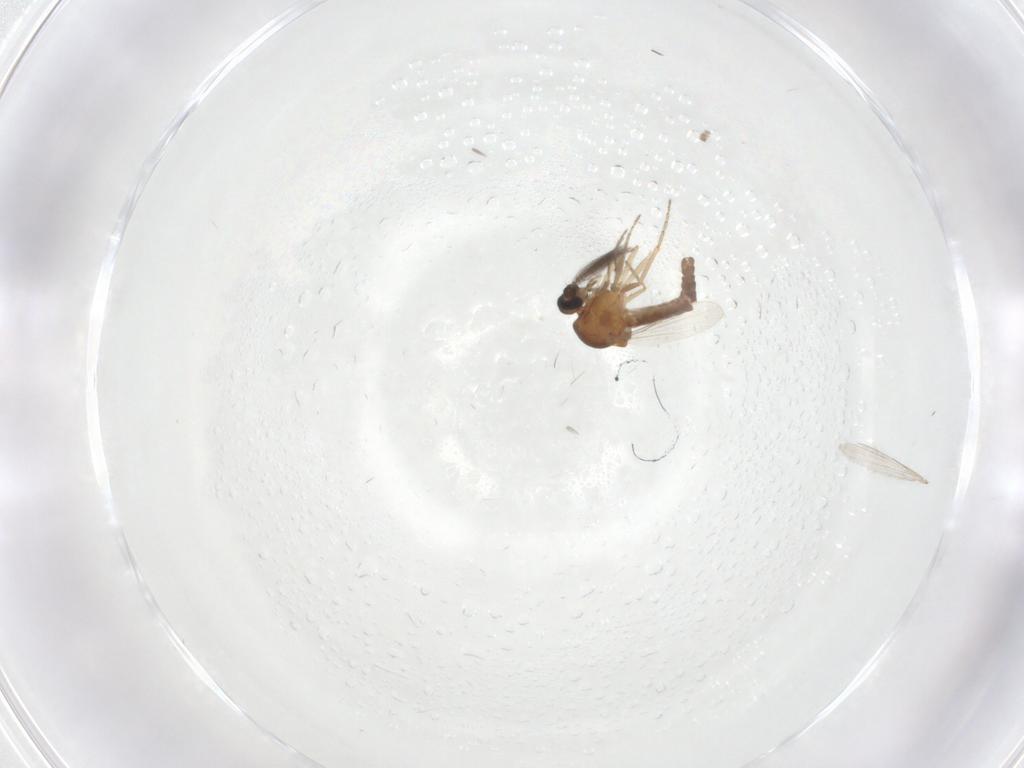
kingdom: Animalia
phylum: Arthropoda
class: Insecta
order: Diptera
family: Ceratopogonidae
